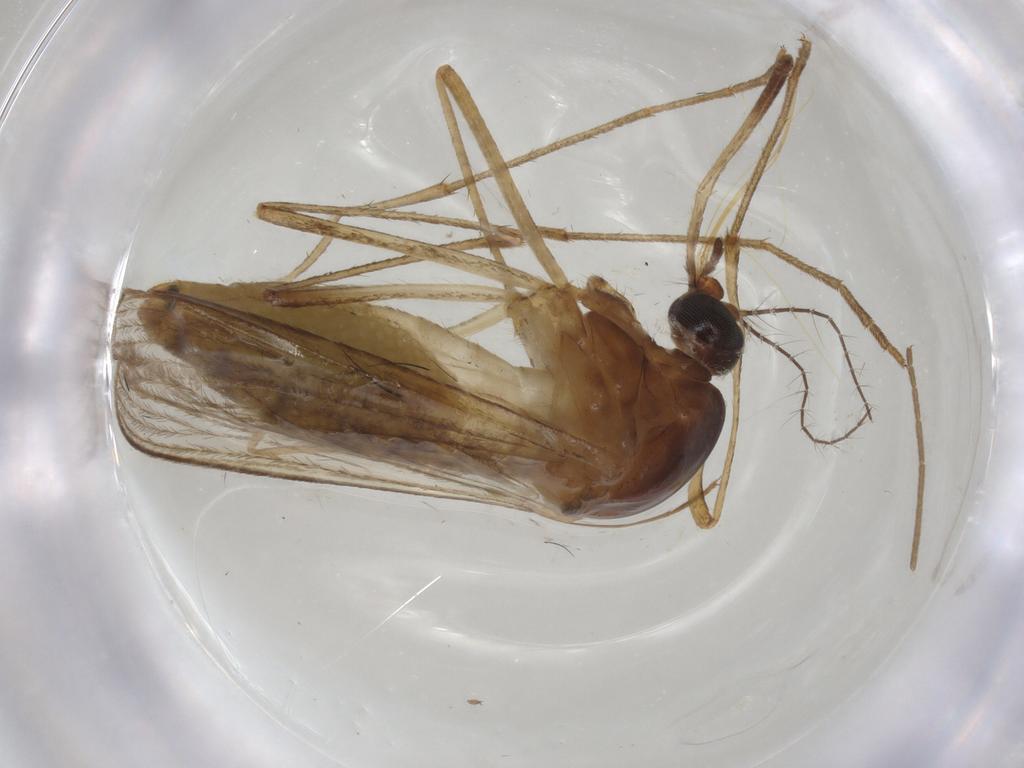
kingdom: Animalia
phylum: Arthropoda
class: Insecta
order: Diptera
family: Drosophilidae
